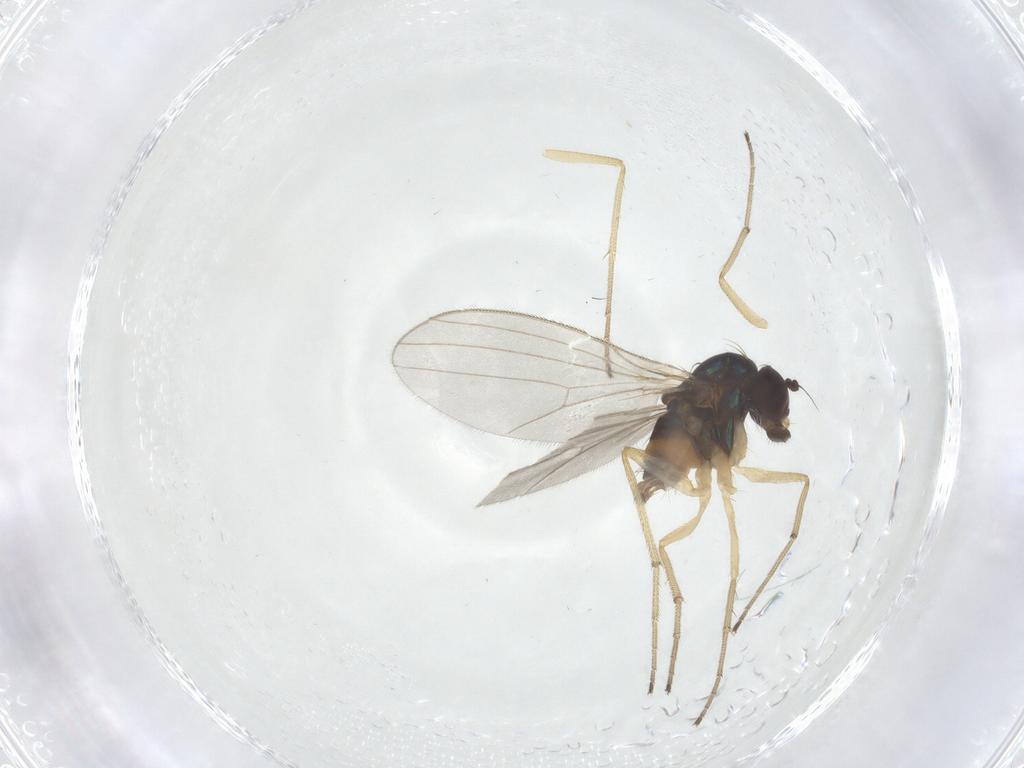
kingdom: Animalia
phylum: Arthropoda
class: Insecta
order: Diptera
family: Dolichopodidae
